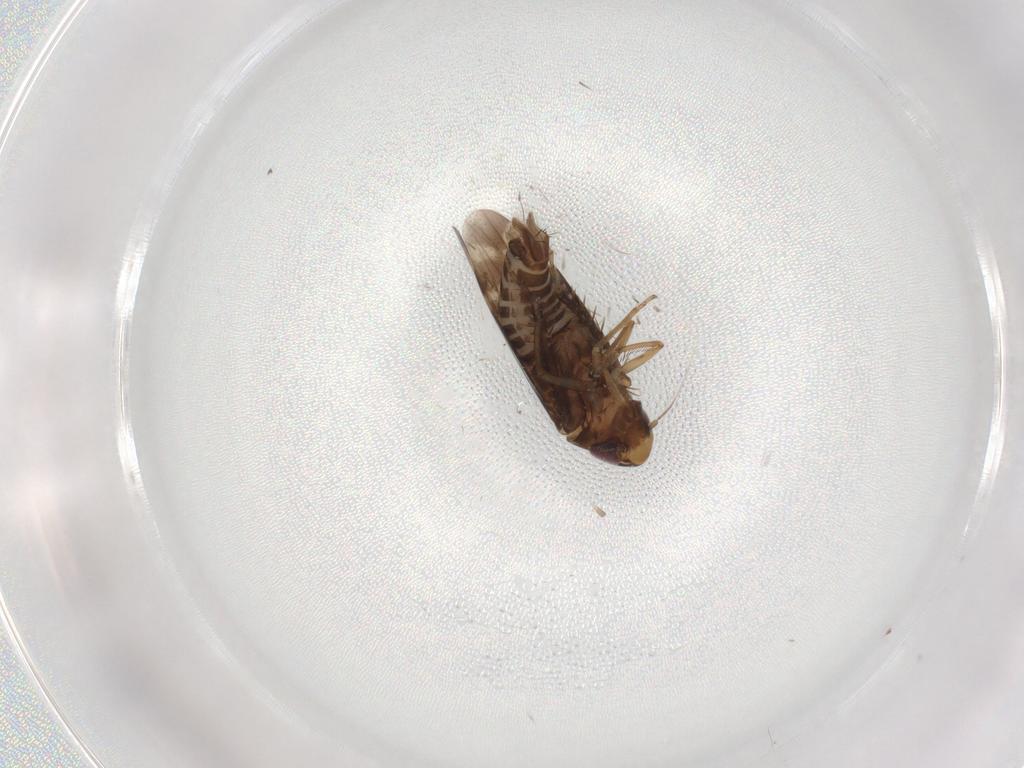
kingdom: Animalia
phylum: Arthropoda
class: Insecta
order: Hemiptera
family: Cicadellidae
